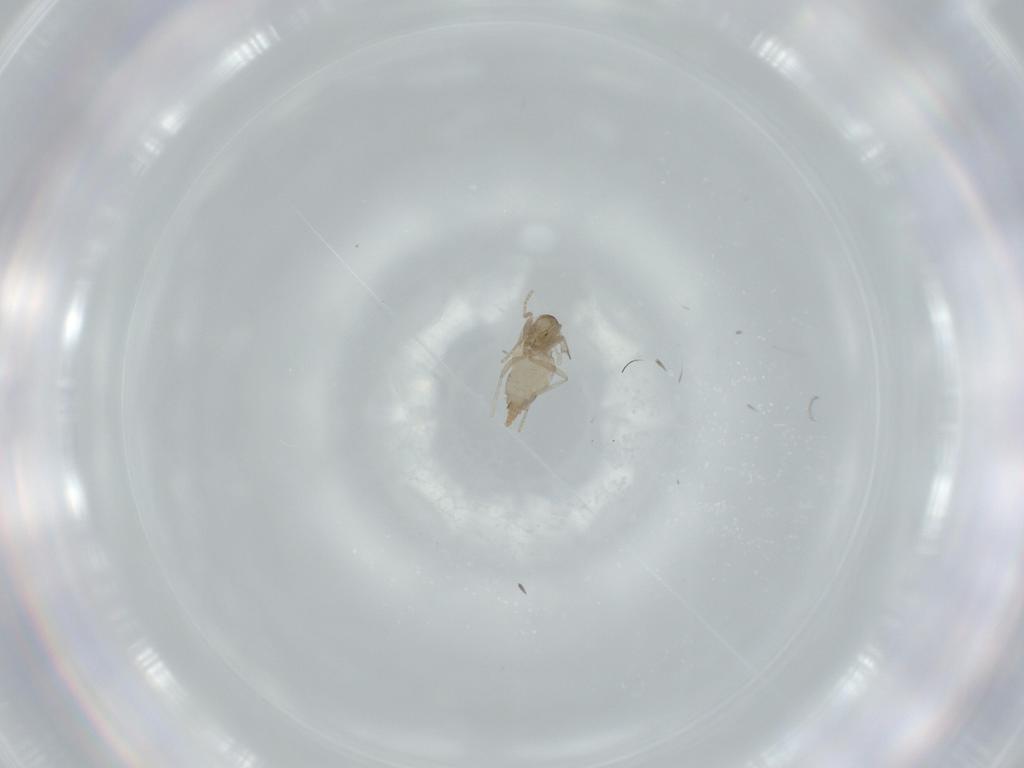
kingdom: Animalia
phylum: Arthropoda
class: Insecta
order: Diptera
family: Cecidomyiidae
